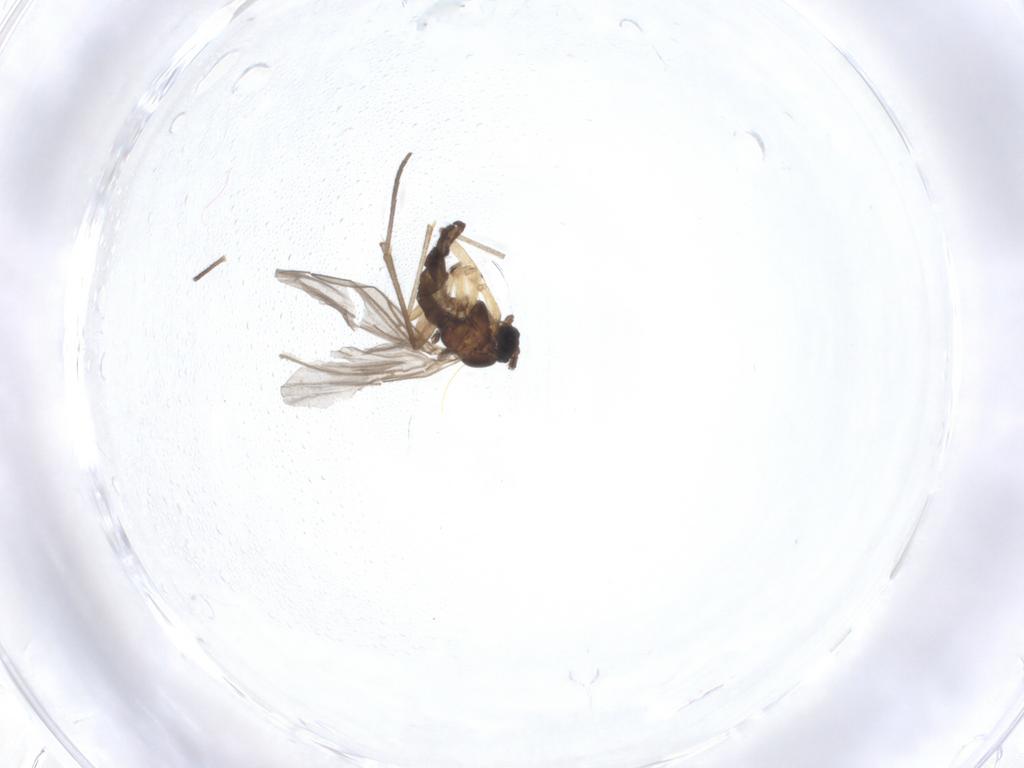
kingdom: Animalia
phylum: Arthropoda
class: Insecta
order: Diptera
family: Sciaridae
